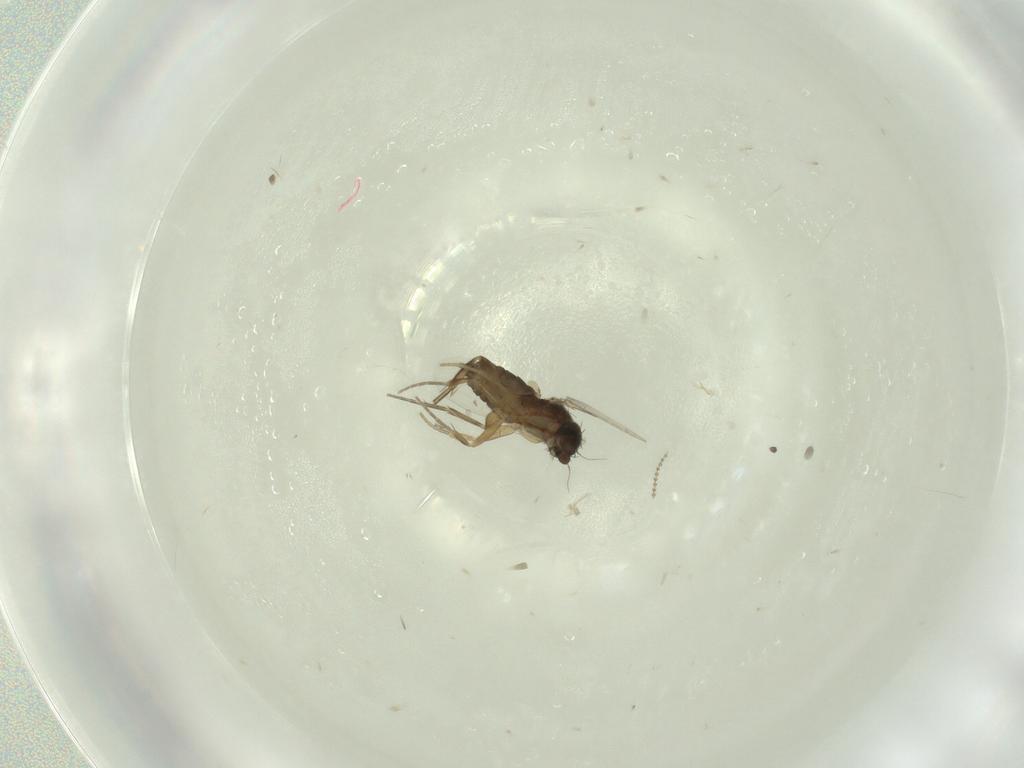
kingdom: Animalia
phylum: Arthropoda
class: Insecta
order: Diptera
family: Phoridae
